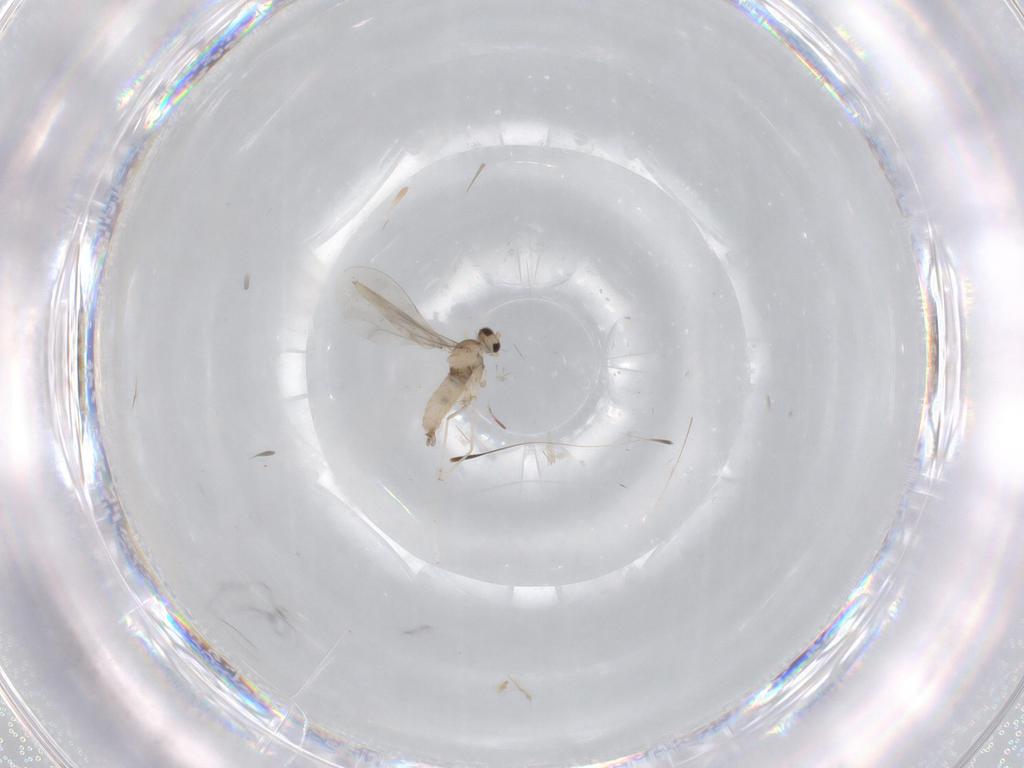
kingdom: Animalia
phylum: Arthropoda
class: Insecta
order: Diptera
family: Cecidomyiidae
